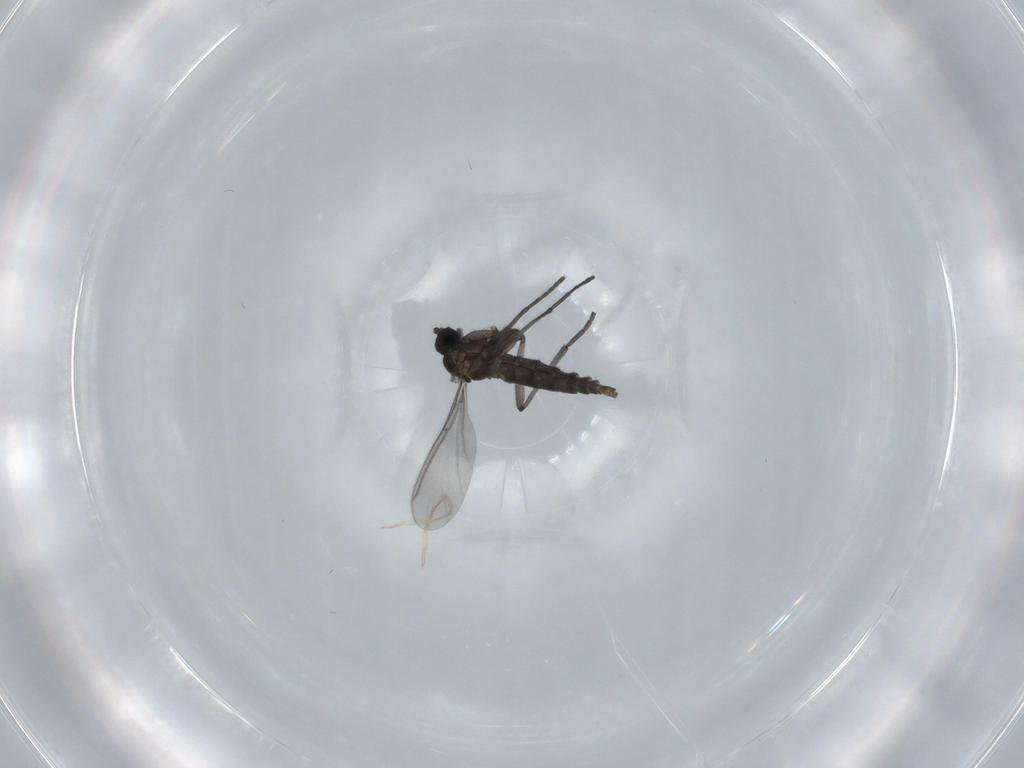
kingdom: Animalia
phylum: Arthropoda
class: Insecta
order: Diptera
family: Sciaridae
